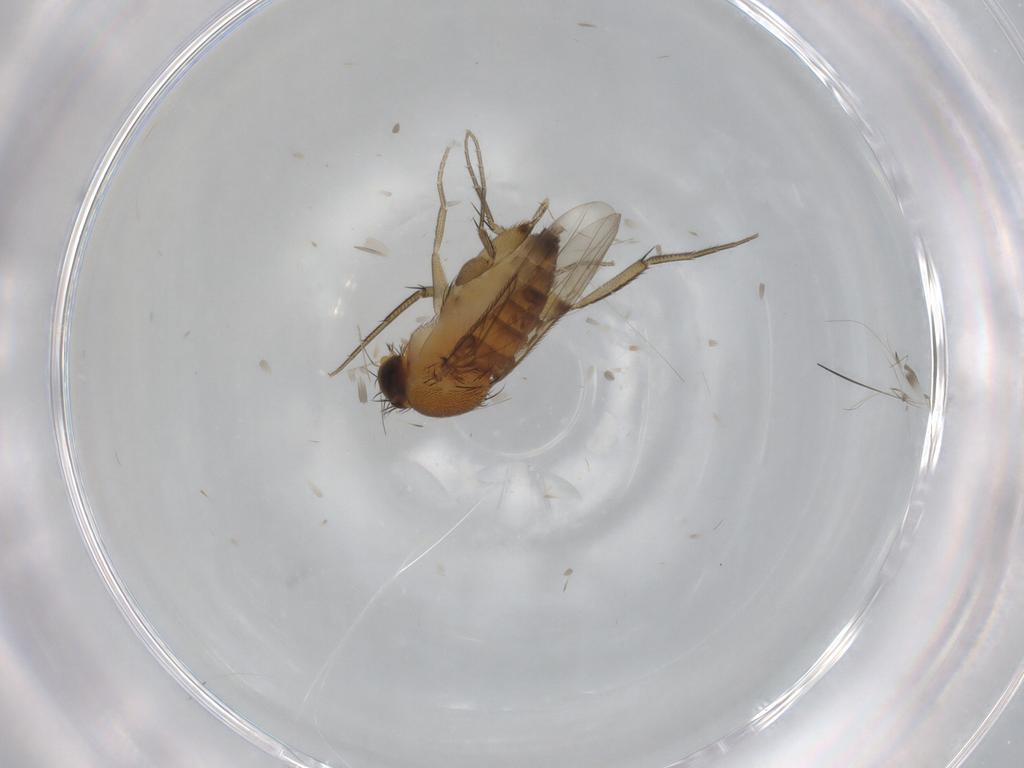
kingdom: Animalia
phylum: Arthropoda
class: Insecta
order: Diptera
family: Phoridae
